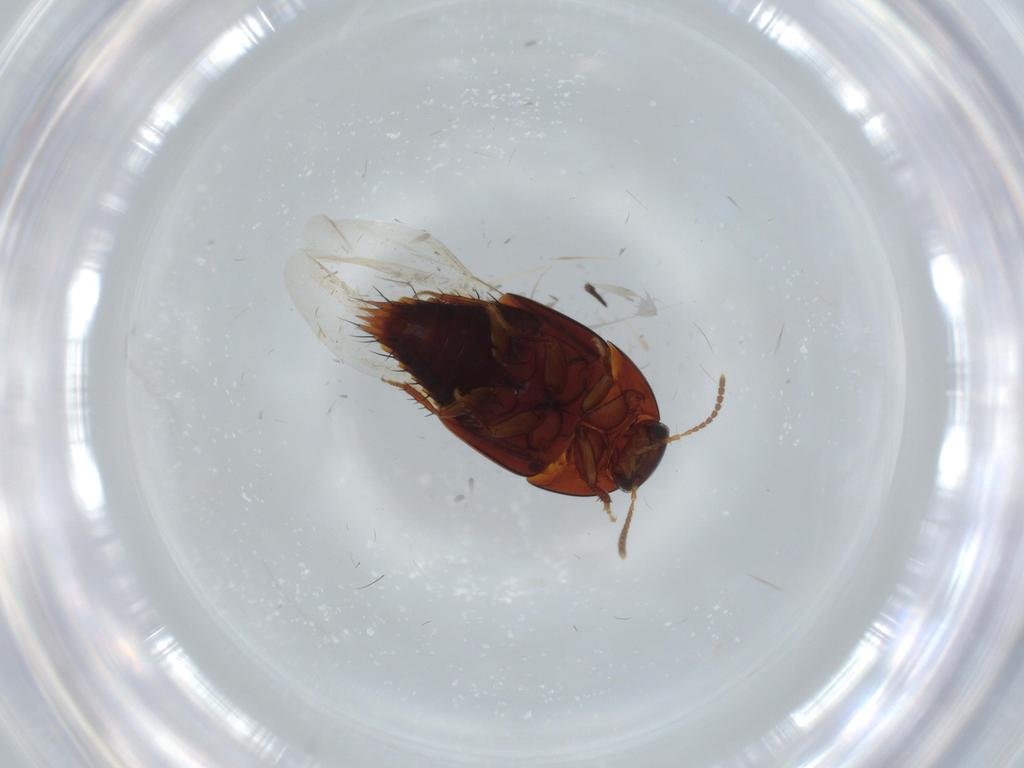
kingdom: Animalia
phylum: Arthropoda
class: Insecta
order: Coleoptera
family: Staphylinidae
